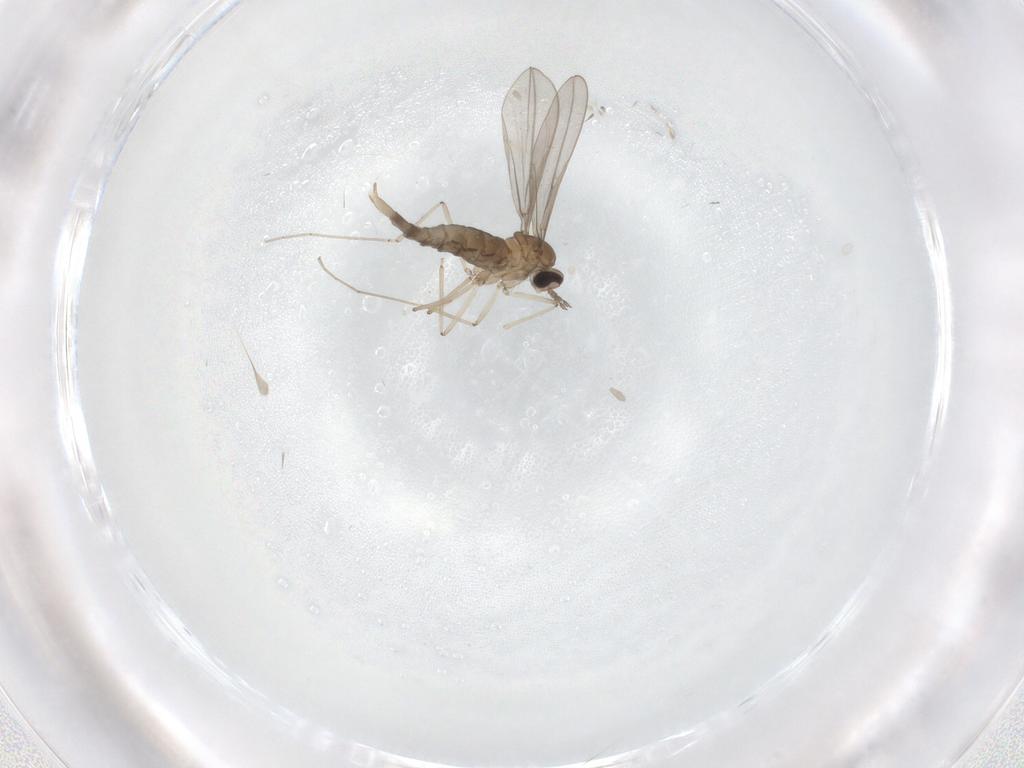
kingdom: Animalia
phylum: Arthropoda
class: Insecta
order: Diptera
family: Chironomidae
